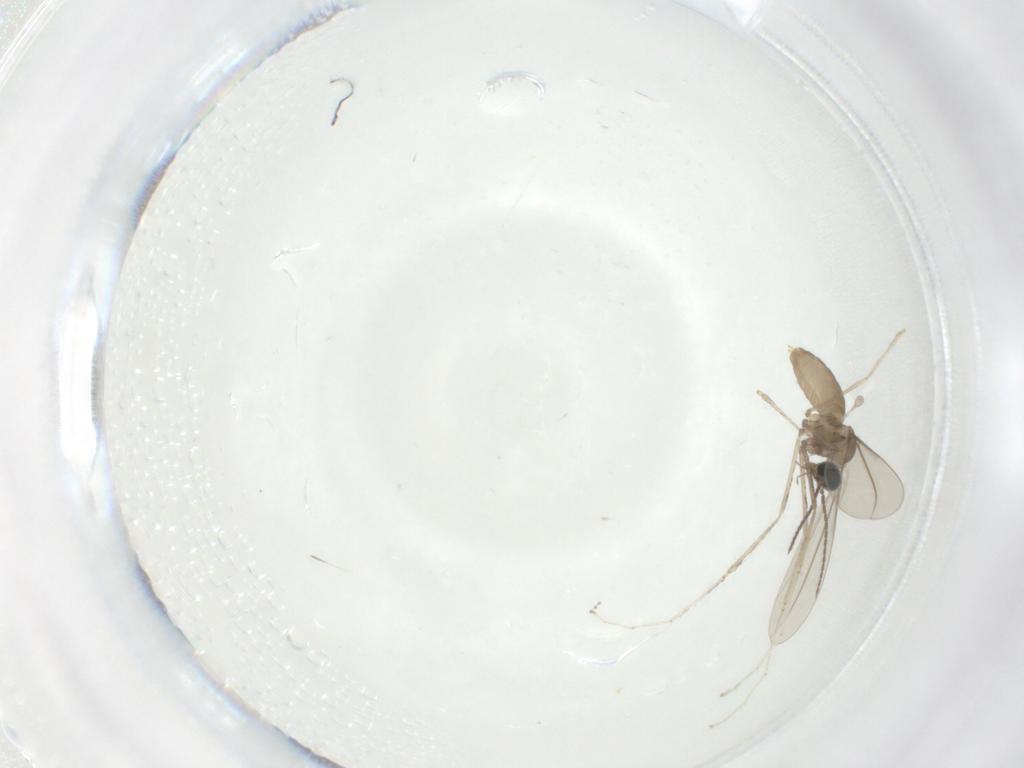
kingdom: Animalia
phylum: Arthropoda
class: Insecta
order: Diptera
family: Cecidomyiidae
